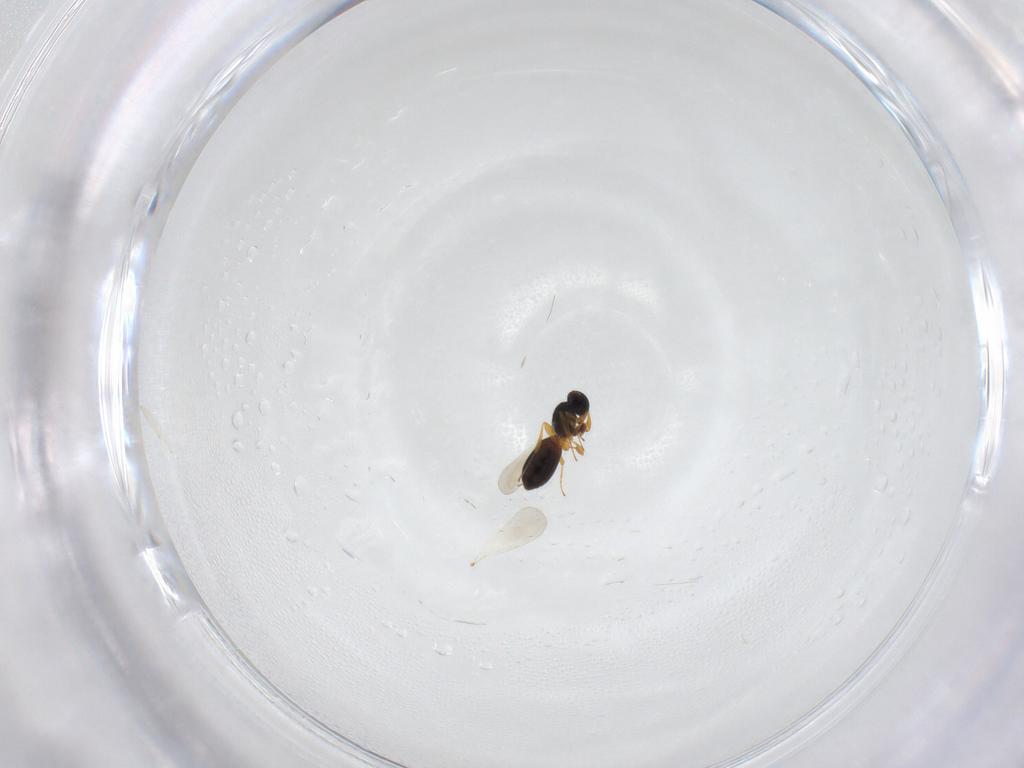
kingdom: Animalia
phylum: Arthropoda
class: Insecta
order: Hymenoptera
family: Platygastridae
